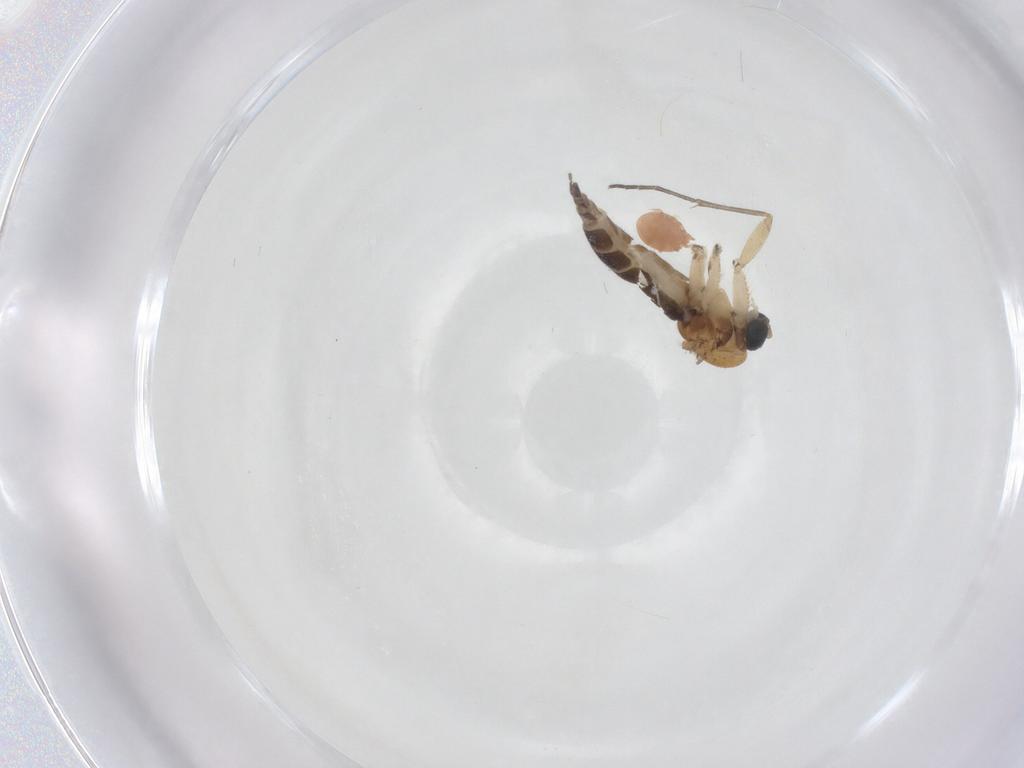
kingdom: Animalia
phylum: Arthropoda
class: Insecta
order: Diptera
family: Sciaridae
